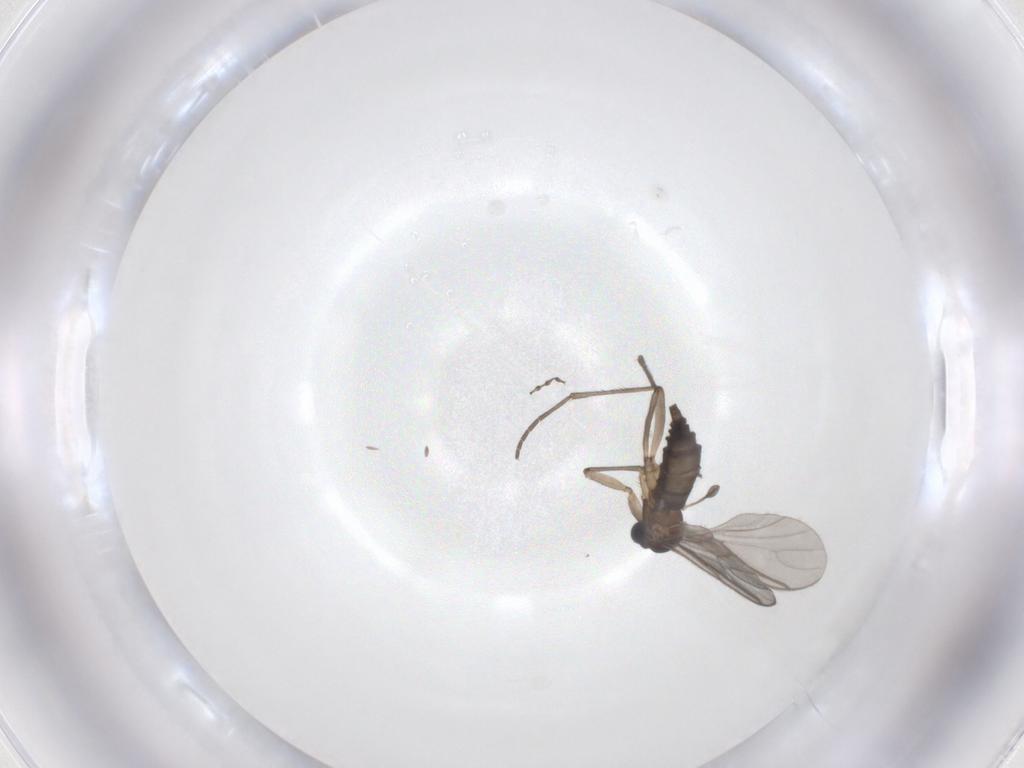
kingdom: Animalia
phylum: Arthropoda
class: Insecta
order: Diptera
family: Sciaridae
